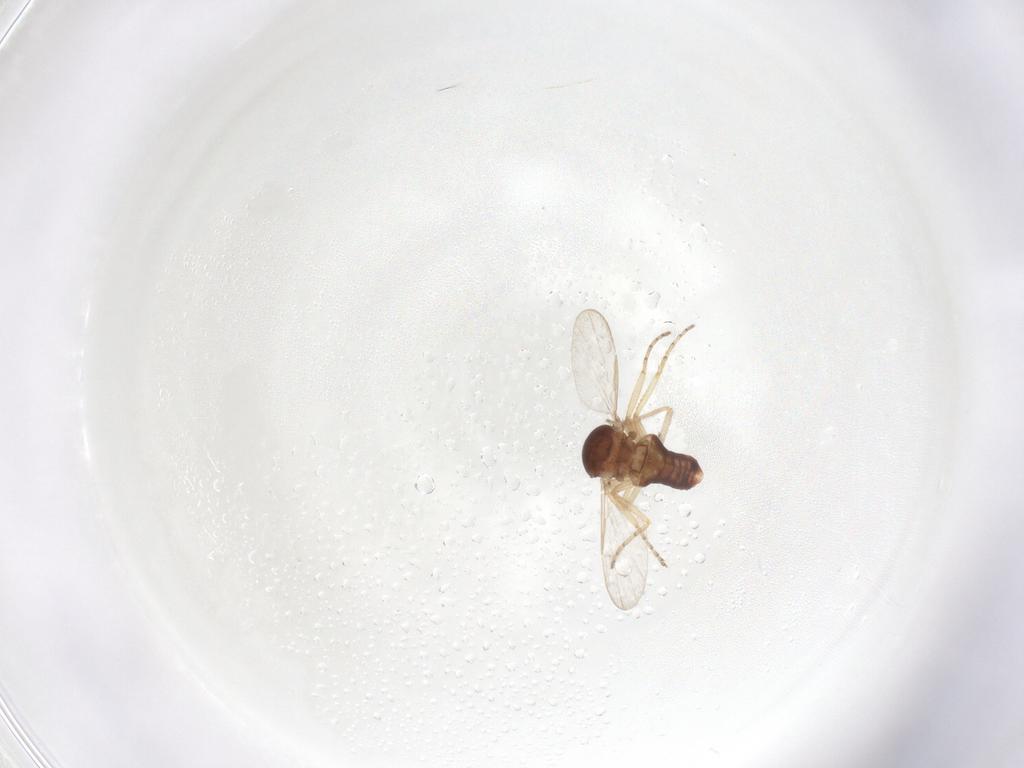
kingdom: Animalia
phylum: Arthropoda
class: Insecta
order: Diptera
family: Ceratopogonidae
